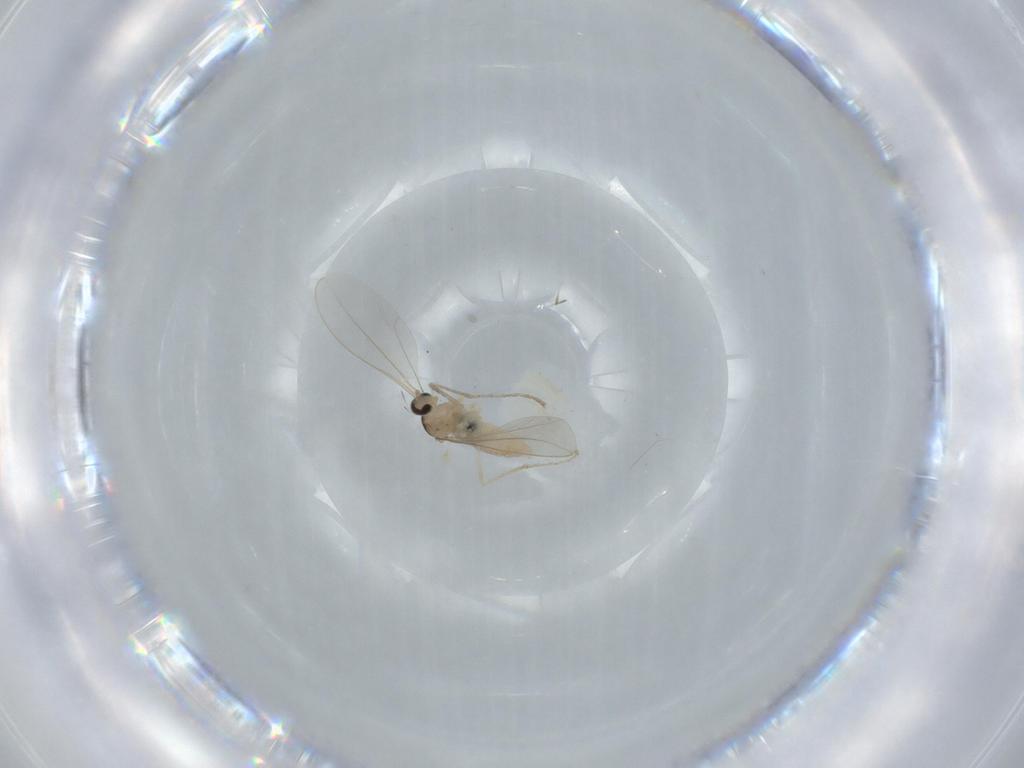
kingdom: Animalia
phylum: Arthropoda
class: Insecta
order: Diptera
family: Cecidomyiidae
